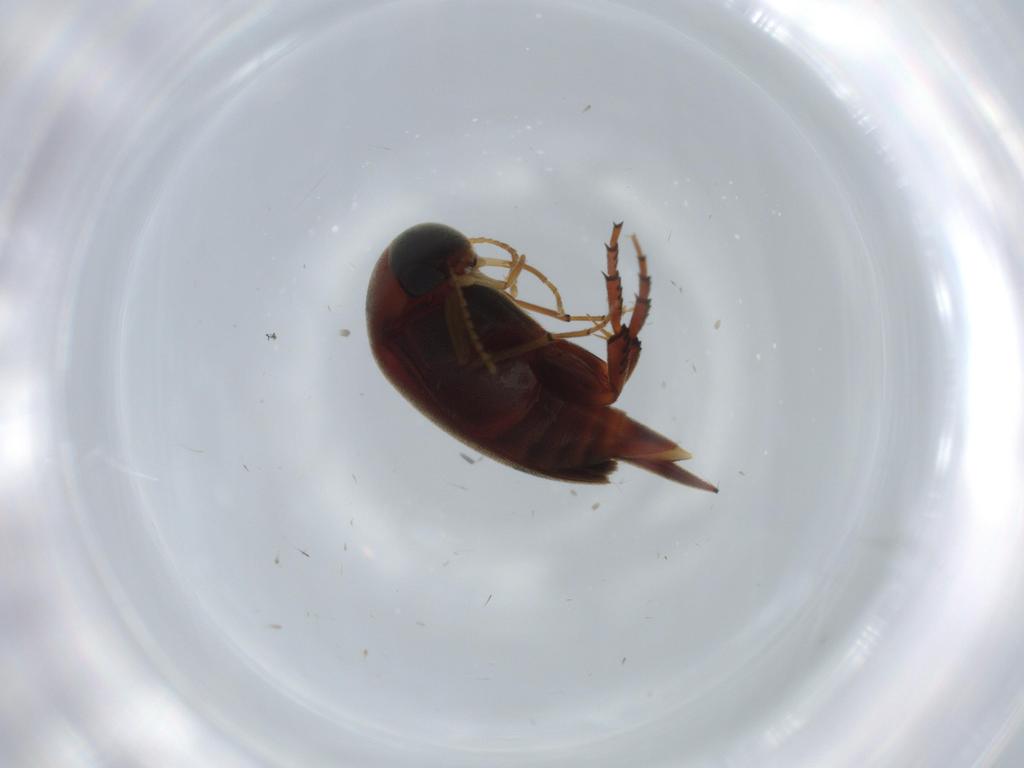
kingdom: Animalia
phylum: Arthropoda
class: Insecta
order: Coleoptera
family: Mordellidae
